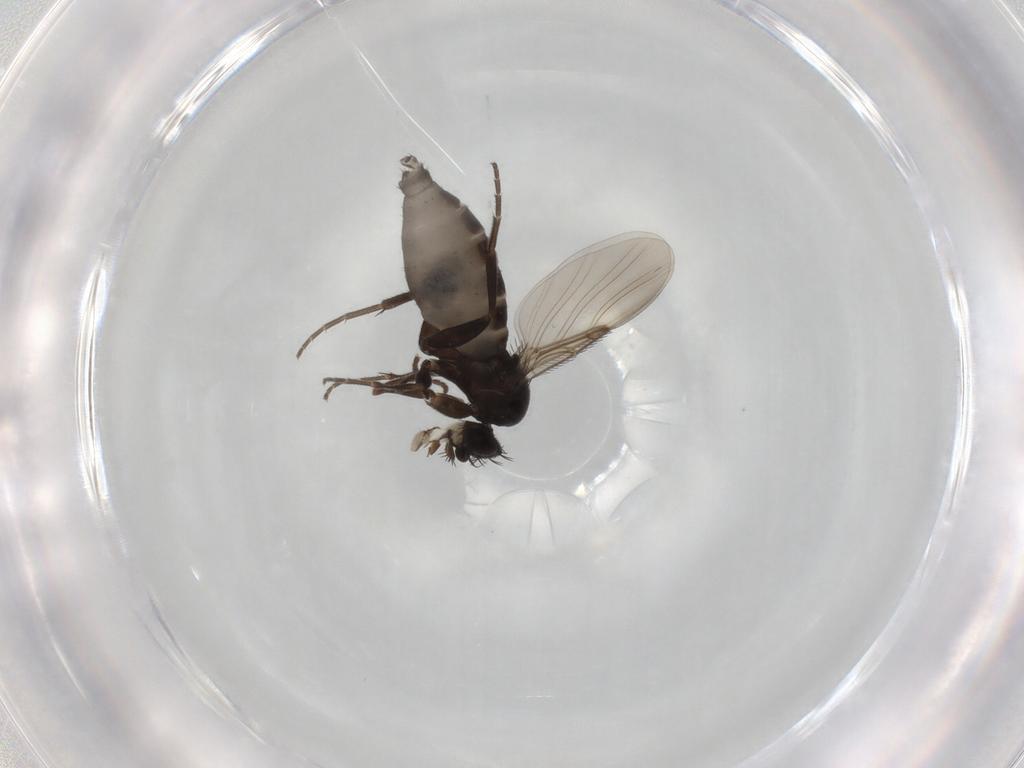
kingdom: Animalia
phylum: Arthropoda
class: Insecta
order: Diptera
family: Phoridae
